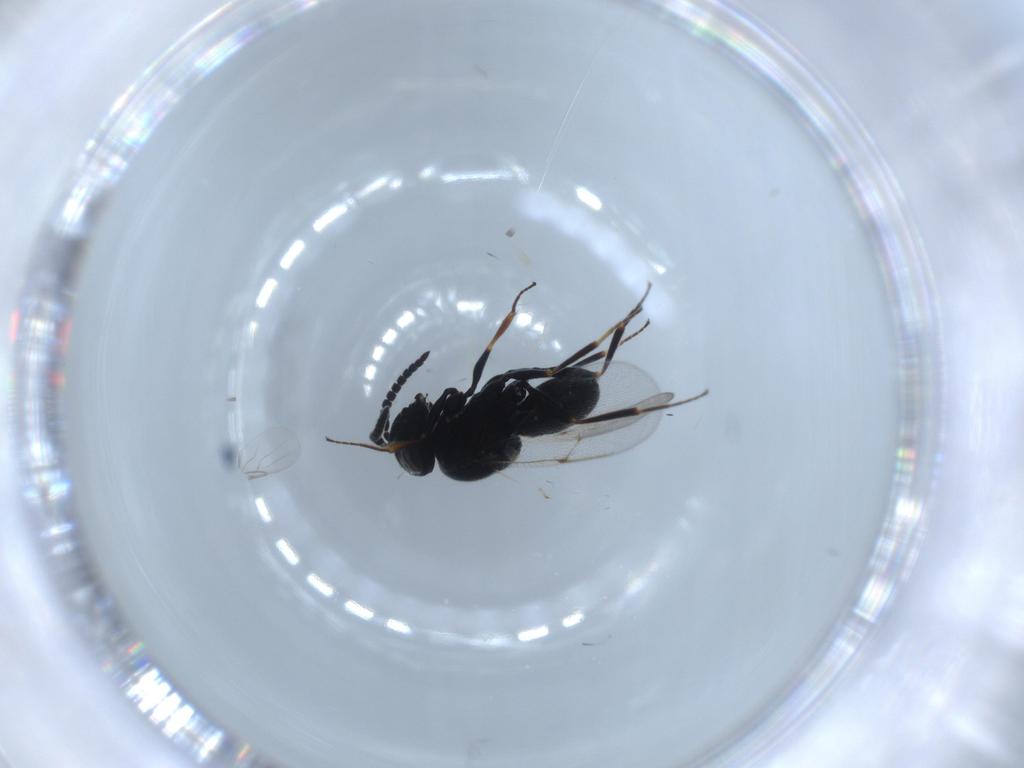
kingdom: Animalia
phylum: Arthropoda
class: Insecta
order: Hymenoptera
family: Scelionidae
